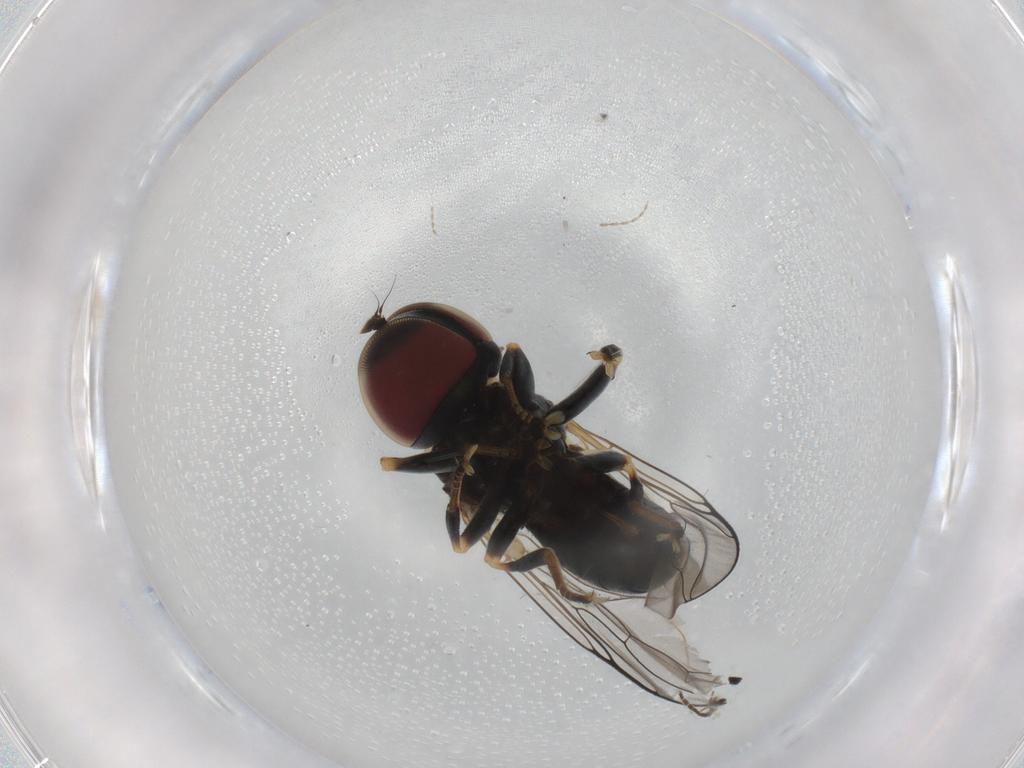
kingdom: Animalia
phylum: Arthropoda
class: Insecta
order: Diptera
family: Pipunculidae
